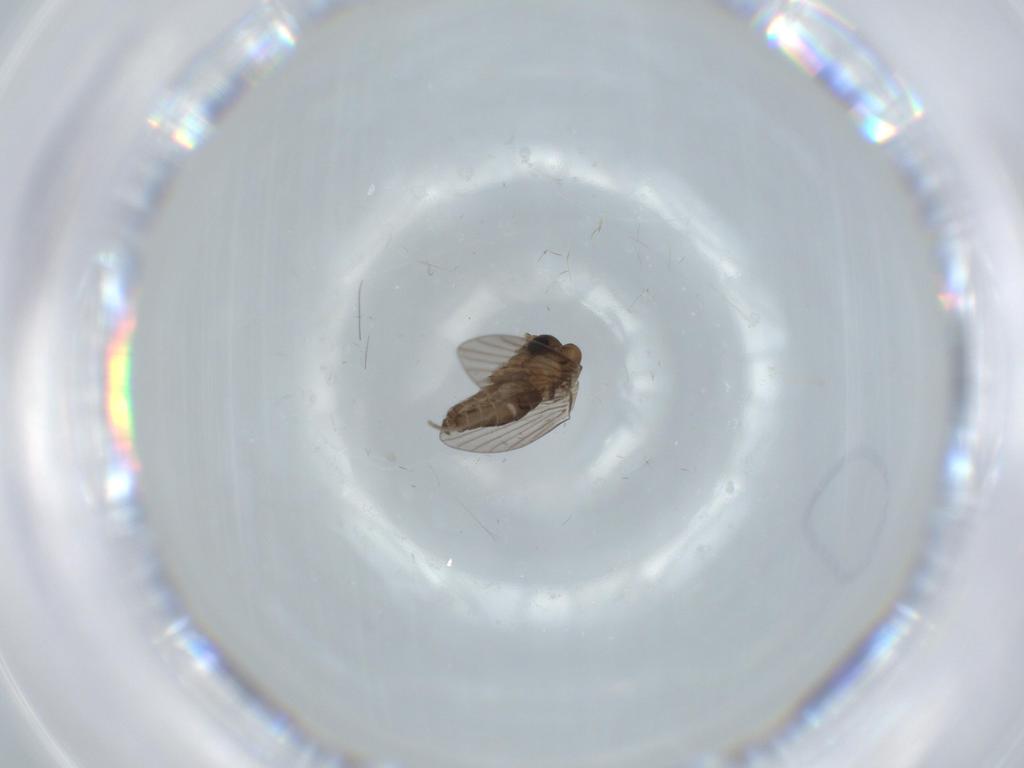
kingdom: Animalia
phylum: Arthropoda
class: Insecta
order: Diptera
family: Psychodidae
